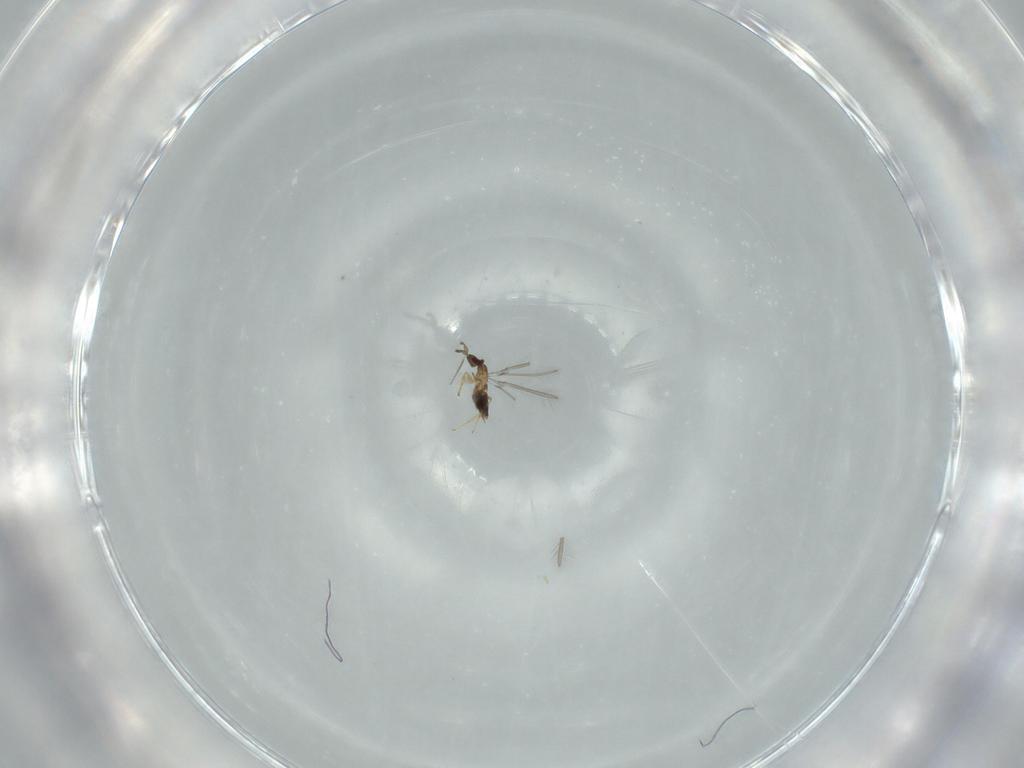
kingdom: Animalia
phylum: Arthropoda
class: Insecta
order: Hymenoptera
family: Formicidae
